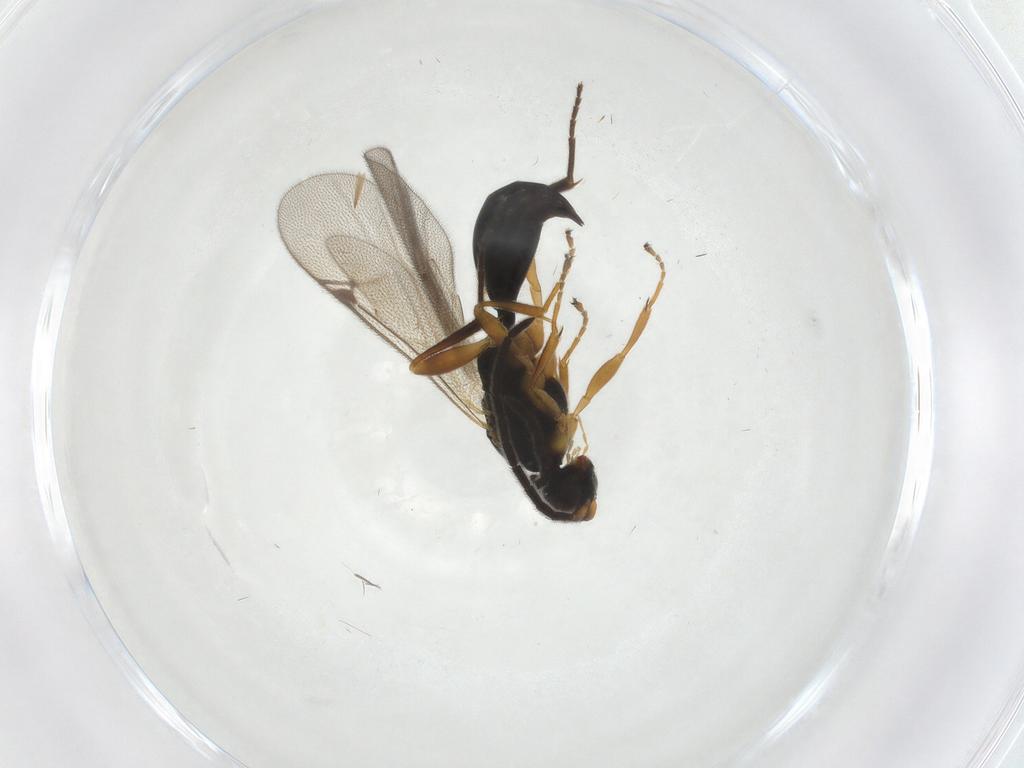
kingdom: Animalia
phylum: Arthropoda
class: Insecta
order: Hymenoptera
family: Proctotrupidae
